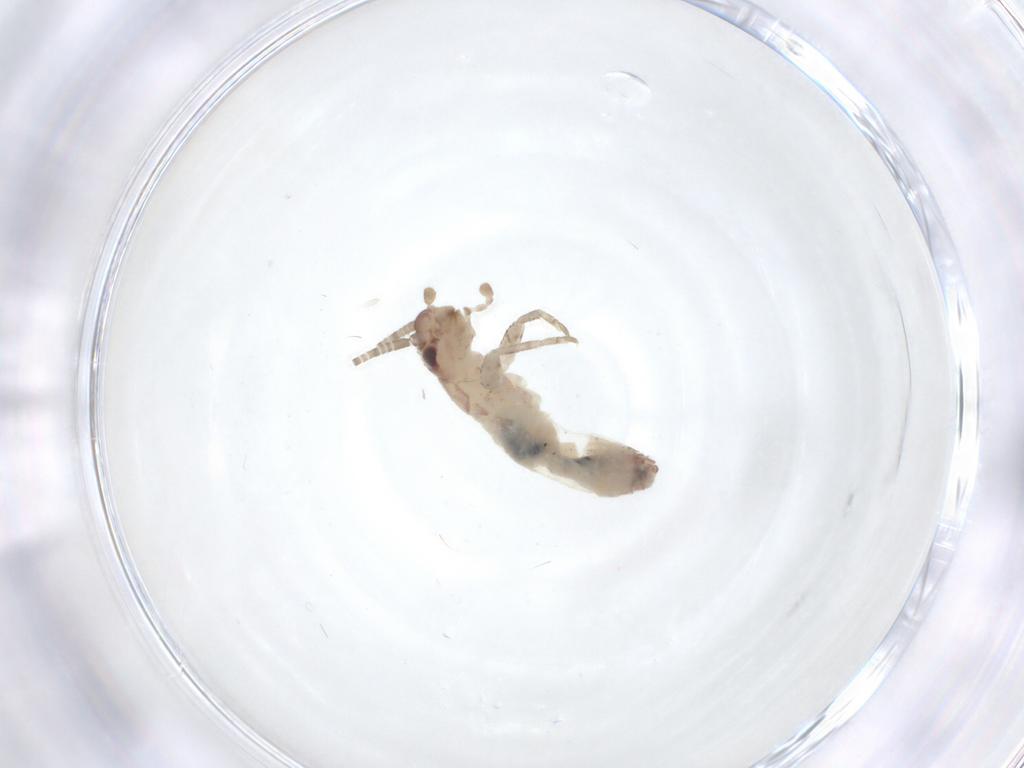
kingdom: Animalia
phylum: Arthropoda
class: Insecta
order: Orthoptera
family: Gryllidae
